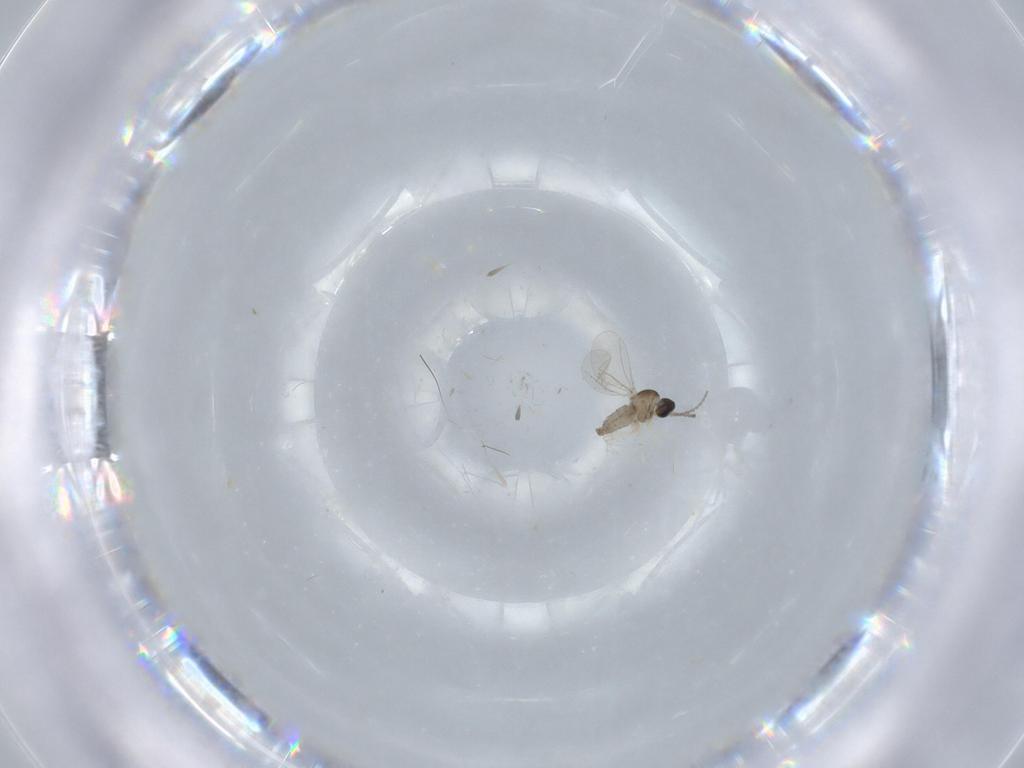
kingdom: Animalia
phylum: Arthropoda
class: Insecta
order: Diptera
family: Cecidomyiidae
